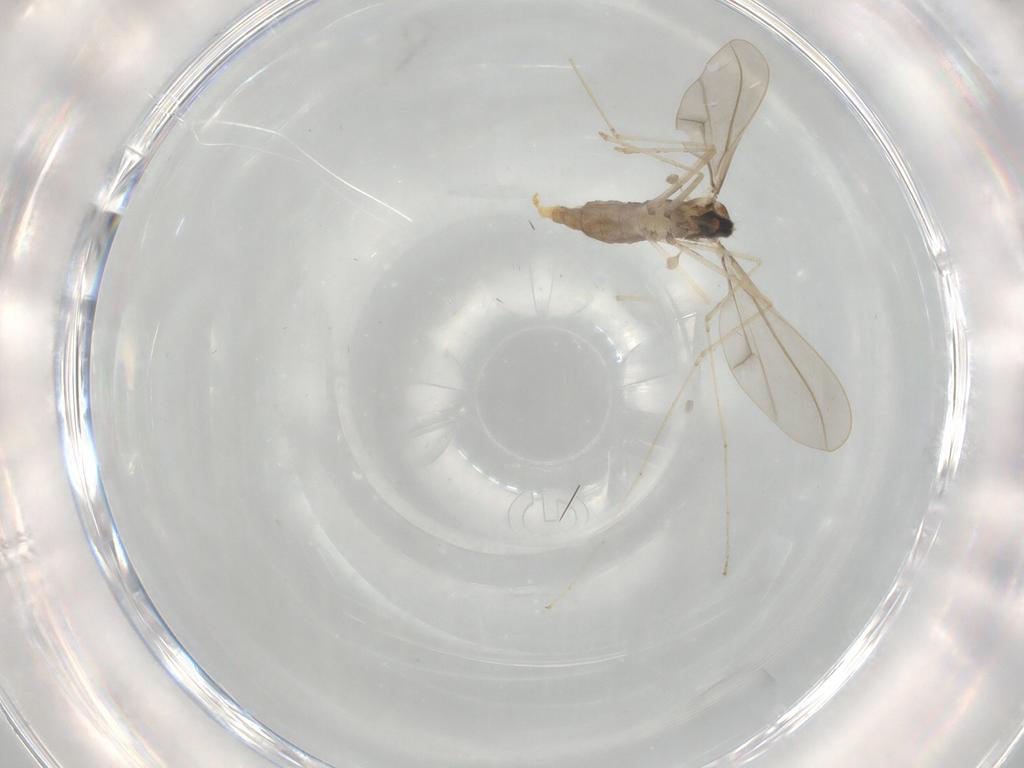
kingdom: Animalia
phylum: Arthropoda
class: Insecta
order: Diptera
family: Cecidomyiidae
